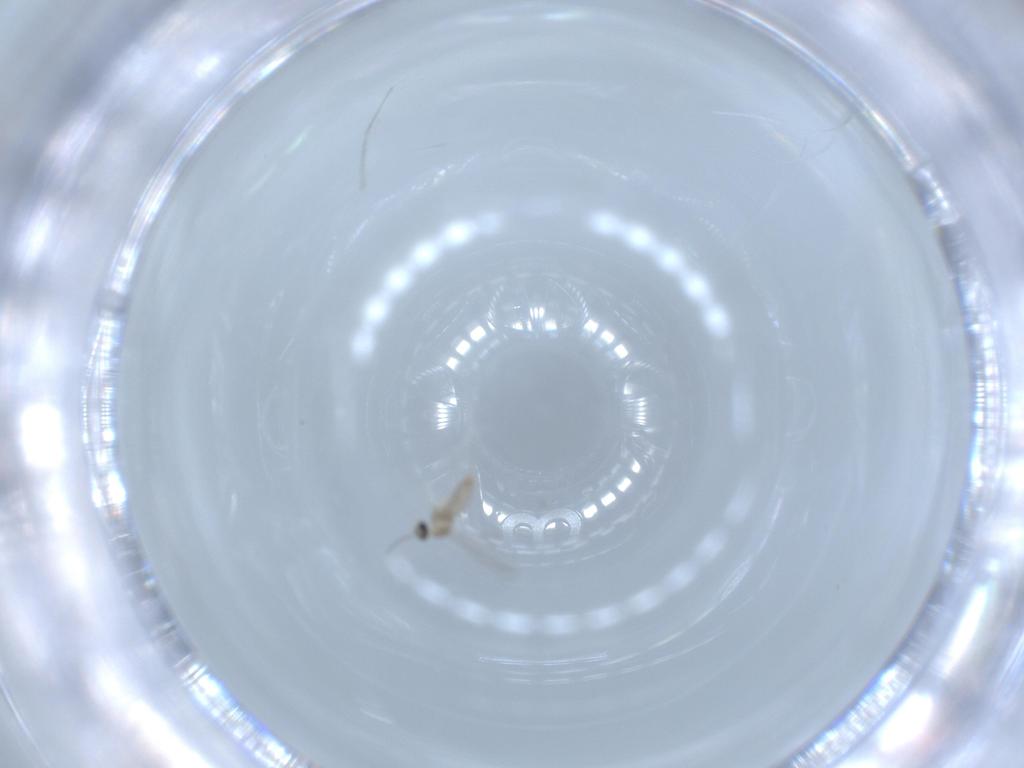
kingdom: Animalia
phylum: Arthropoda
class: Insecta
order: Diptera
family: Cecidomyiidae
